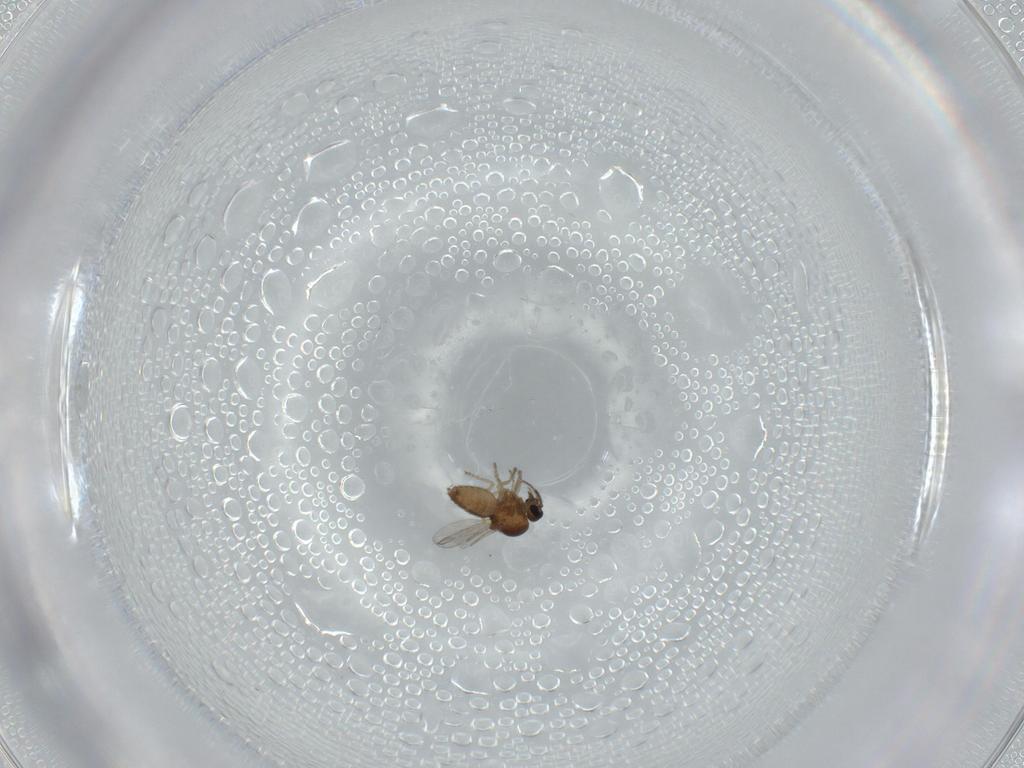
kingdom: Animalia
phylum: Arthropoda
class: Insecta
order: Diptera
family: Ceratopogonidae
